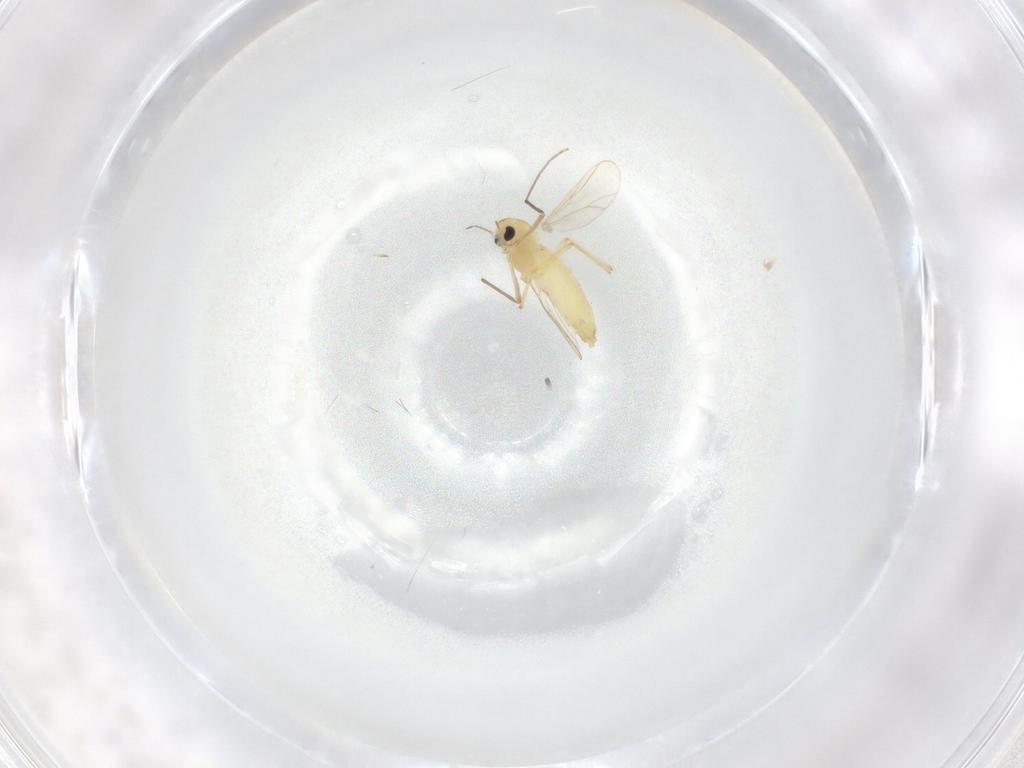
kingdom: Animalia
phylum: Arthropoda
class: Insecta
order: Diptera
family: Chironomidae
